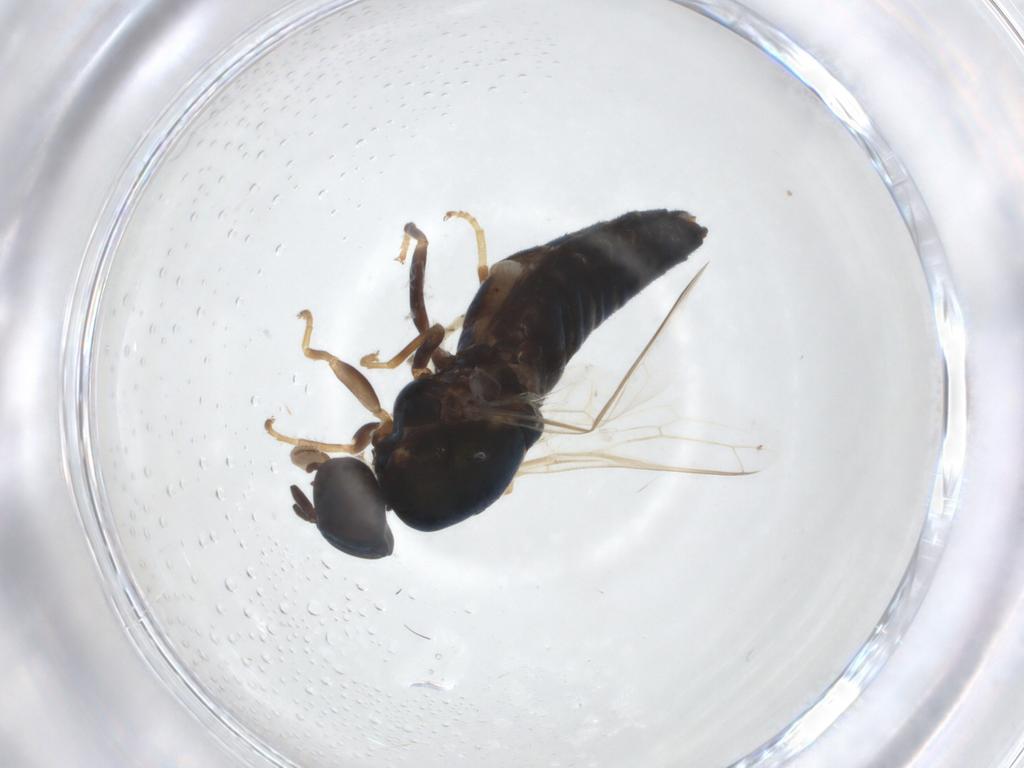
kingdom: Animalia
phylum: Arthropoda
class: Insecta
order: Diptera
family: Scenopinidae
